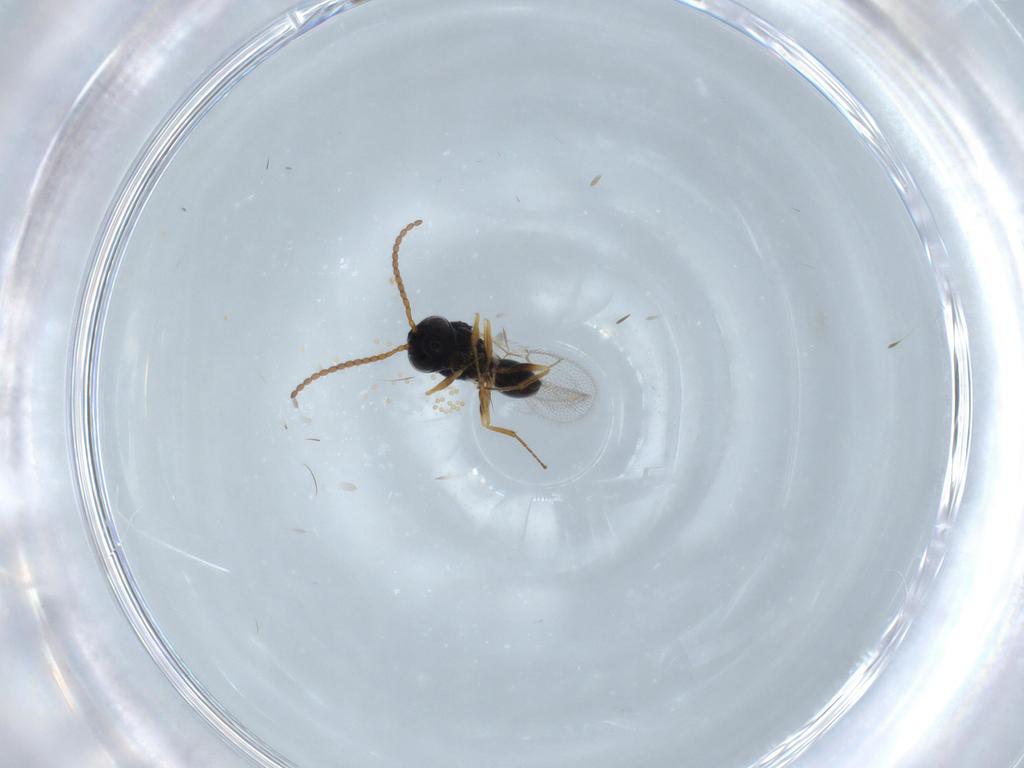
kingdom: Animalia
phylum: Arthropoda
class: Insecta
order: Hymenoptera
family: Figitidae
